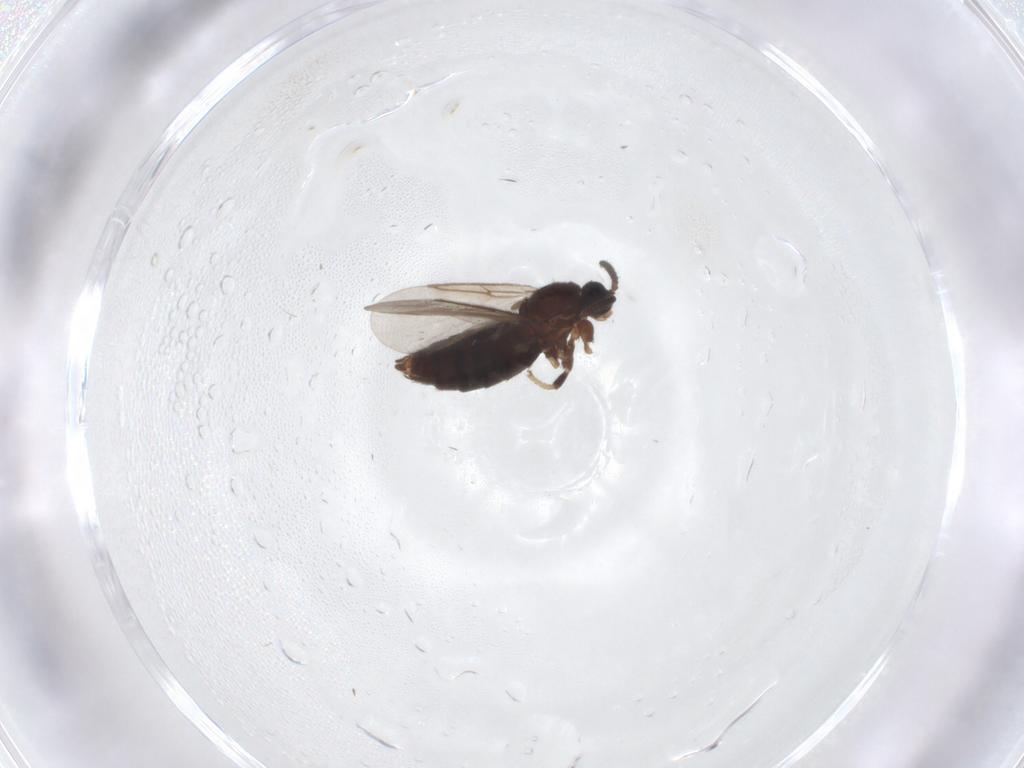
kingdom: Animalia
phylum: Arthropoda
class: Insecta
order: Diptera
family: Scatopsidae
